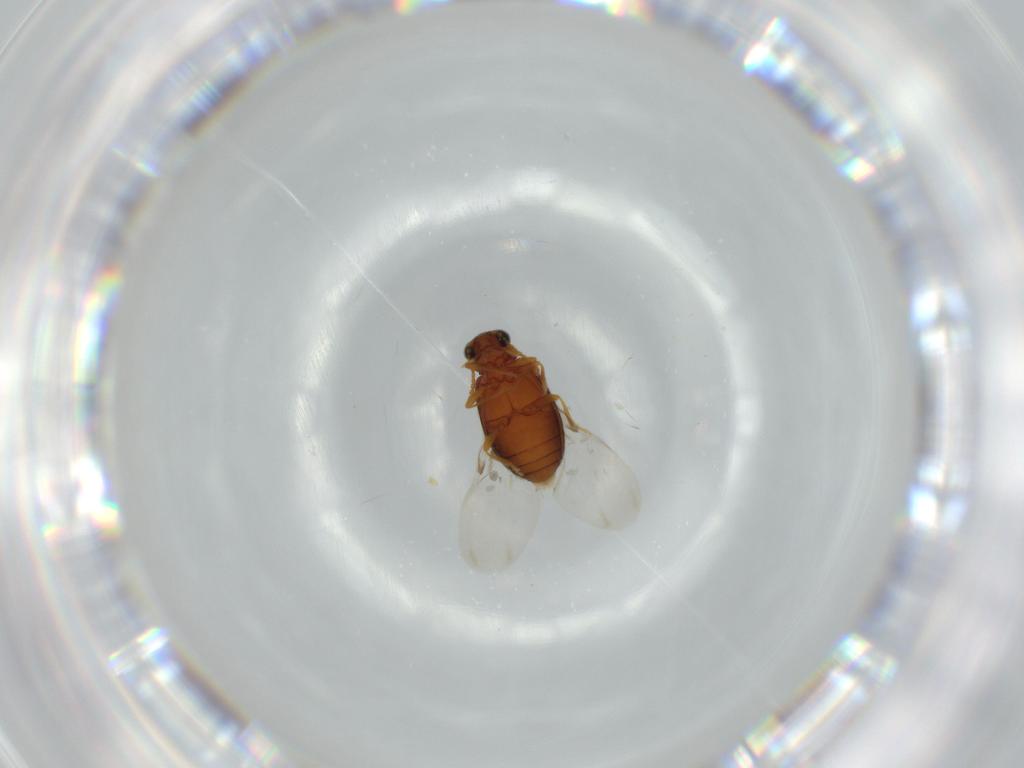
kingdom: Animalia
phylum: Arthropoda
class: Insecta
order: Coleoptera
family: Aderidae
